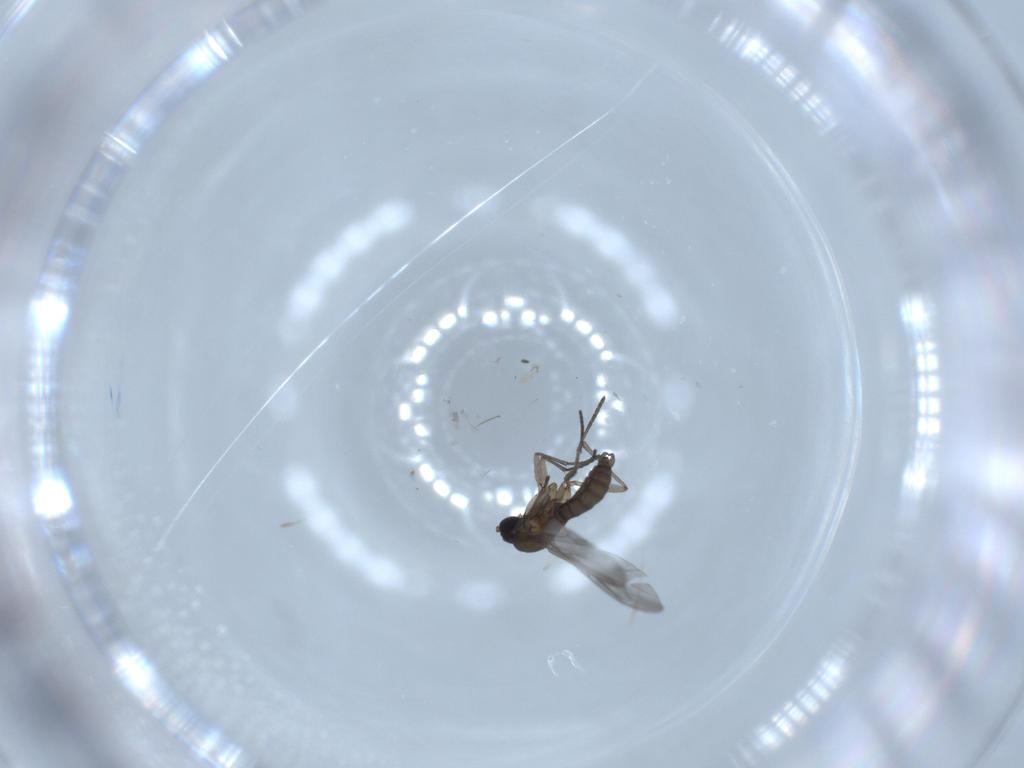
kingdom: Animalia
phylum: Arthropoda
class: Insecta
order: Diptera
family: Sciaridae
